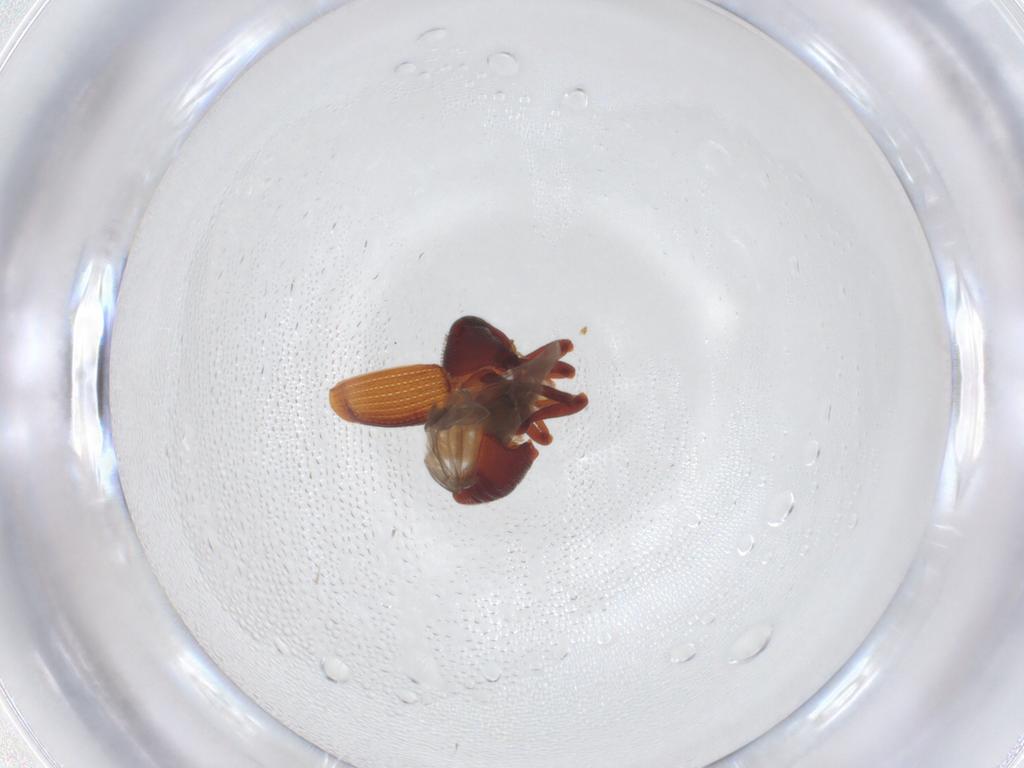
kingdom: Animalia
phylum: Arthropoda
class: Insecta
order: Coleoptera
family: Curculionidae
